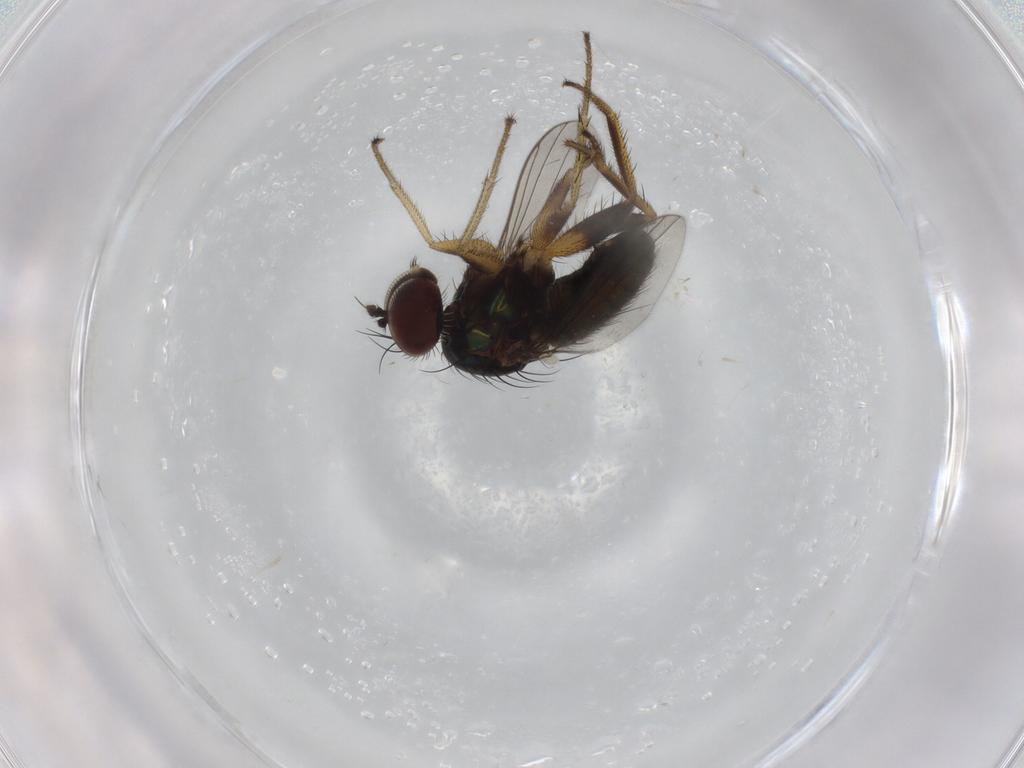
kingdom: Animalia
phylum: Arthropoda
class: Insecta
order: Diptera
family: Dolichopodidae
